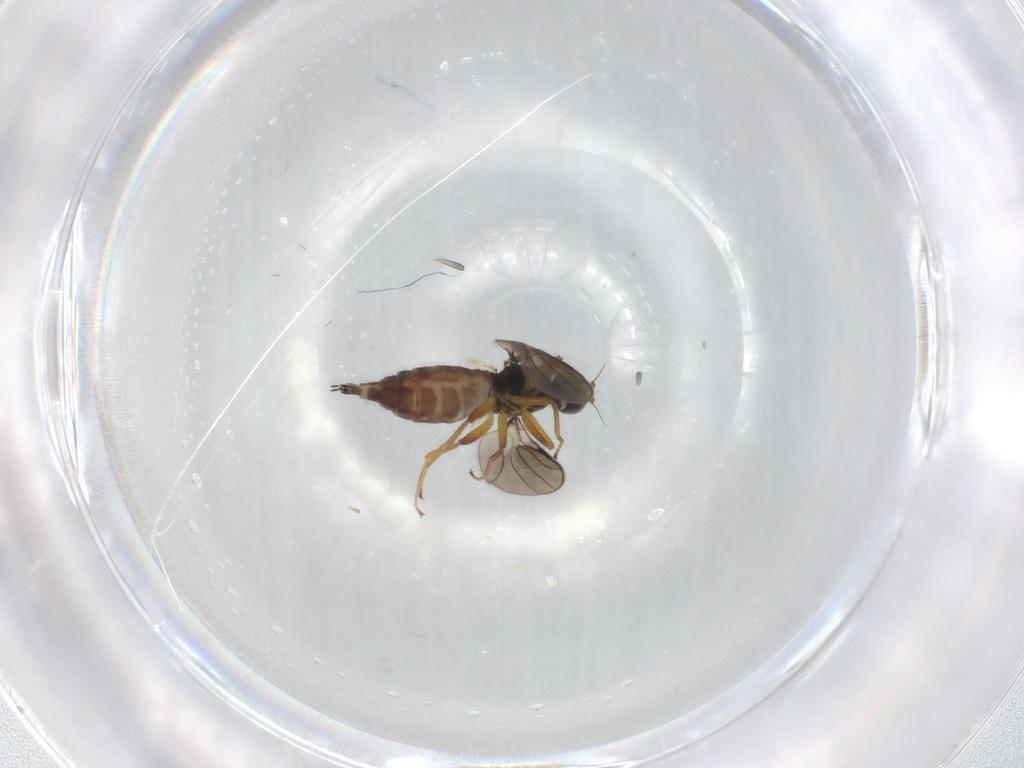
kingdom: Animalia
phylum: Arthropoda
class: Insecta
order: Diptera
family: Hybotidae
